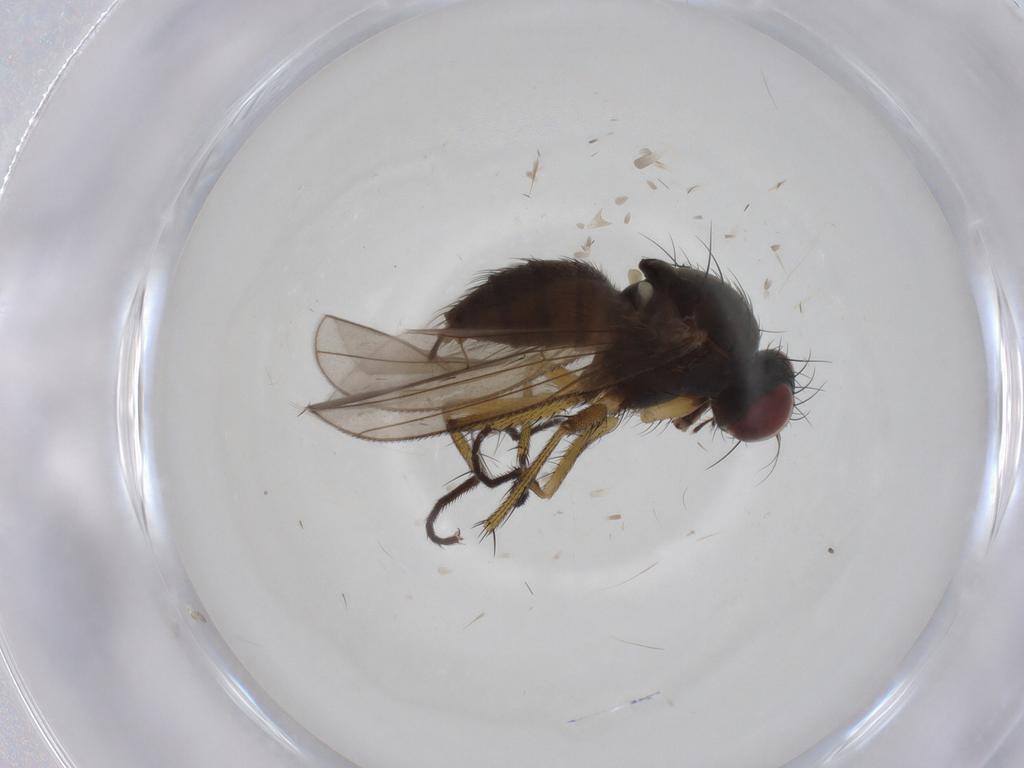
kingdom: Animalia
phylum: Arthropoda
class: Insecta
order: Diptera
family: Muscidae
